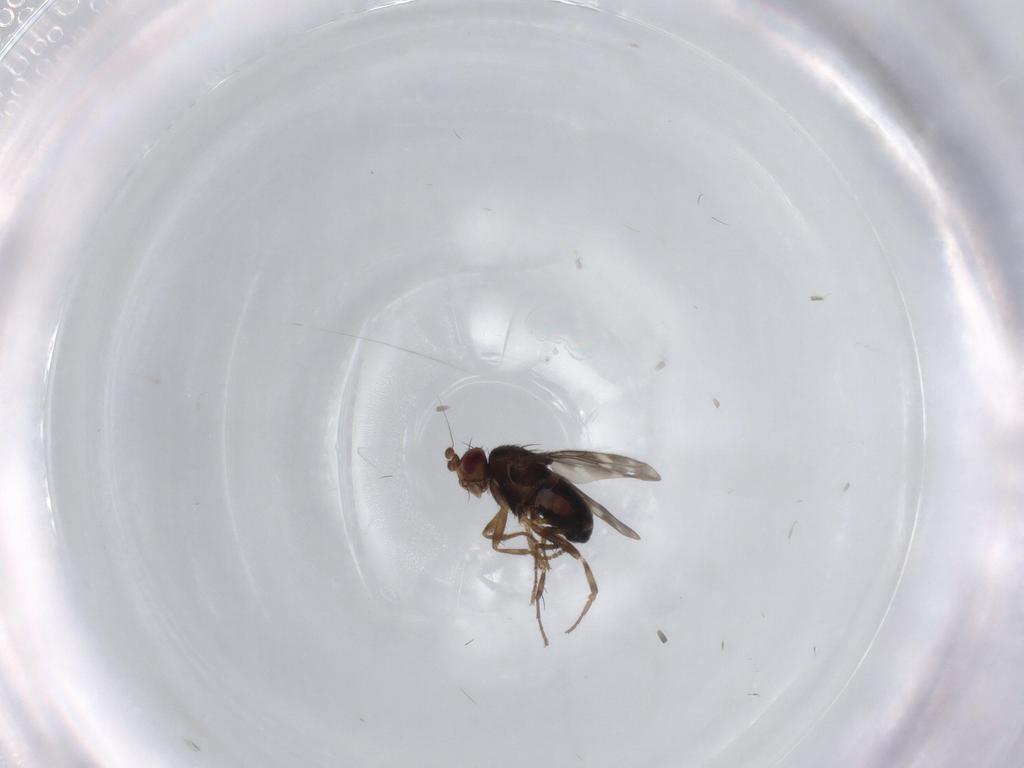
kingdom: Animalia
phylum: Arthropoda
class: Insecta
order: Diptera
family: Sphaeroceridae
